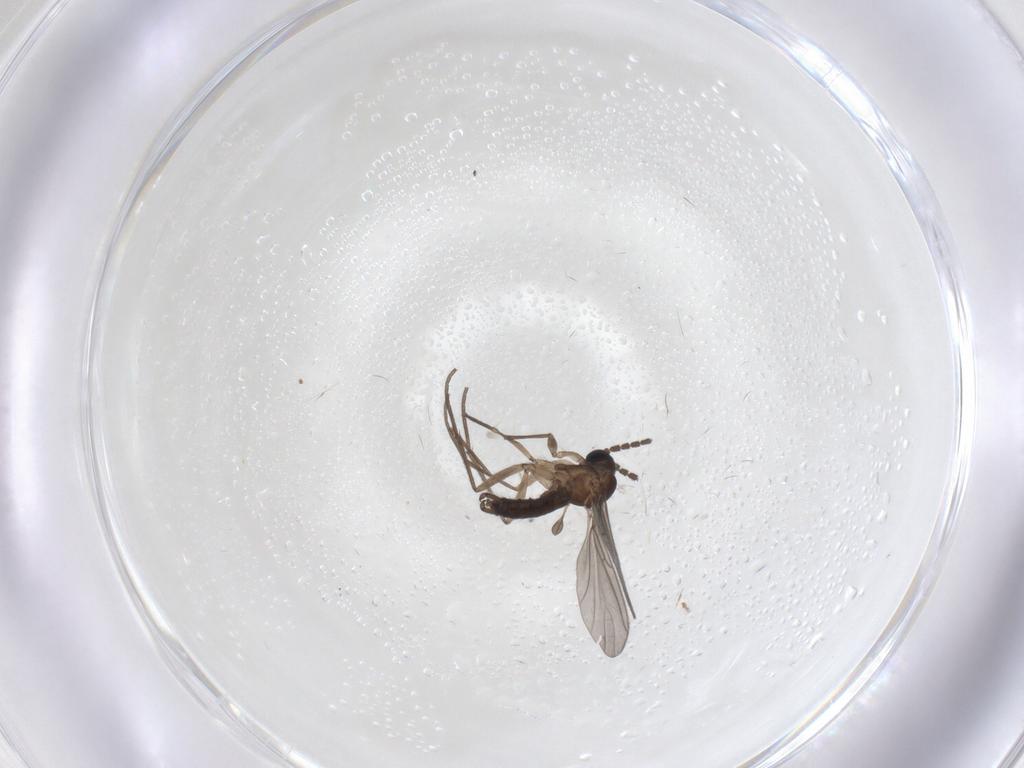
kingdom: Animalia
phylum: Arthropoda
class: Insecta
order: Diptera
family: Sciaridae
